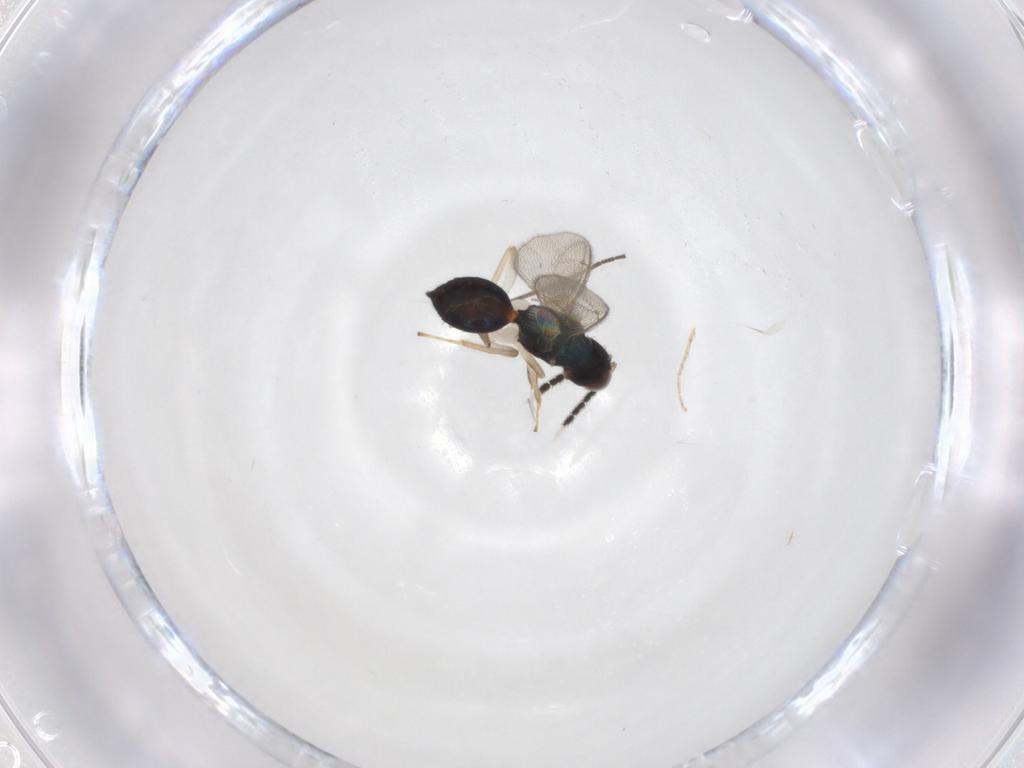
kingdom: Animalia
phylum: Arthropoda
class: Insecta
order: Hymenoptera
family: Eulophidae
